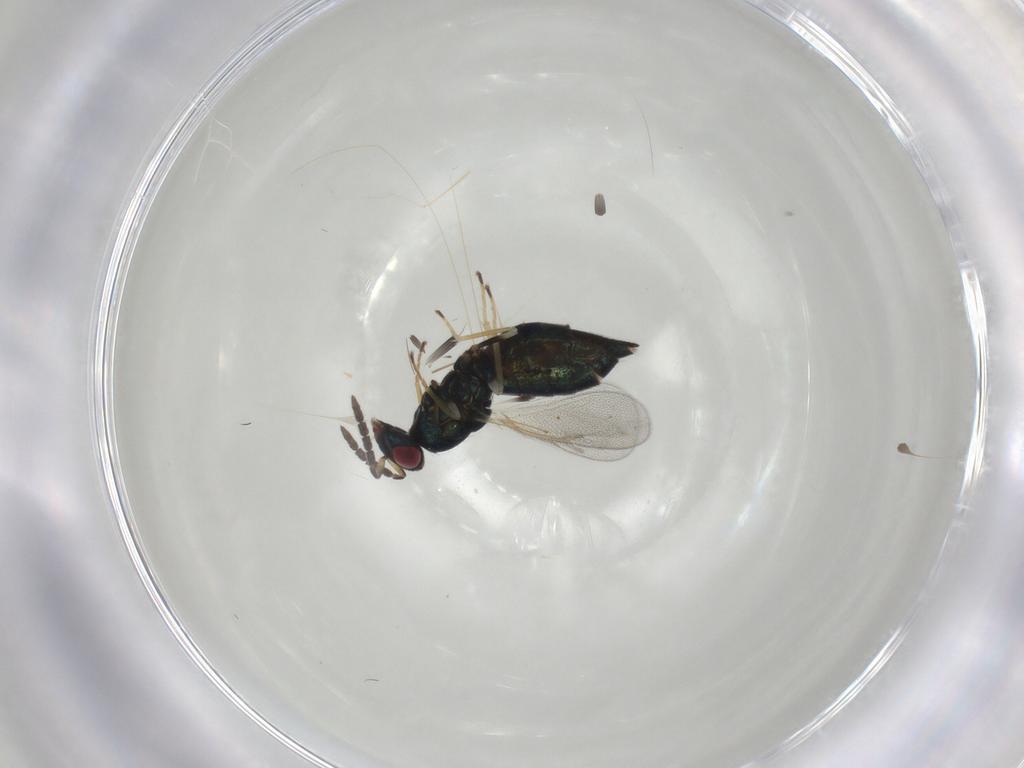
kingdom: Animalia
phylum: Arthropoda
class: Insecta
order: Hymenoptera
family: Eulophidae
